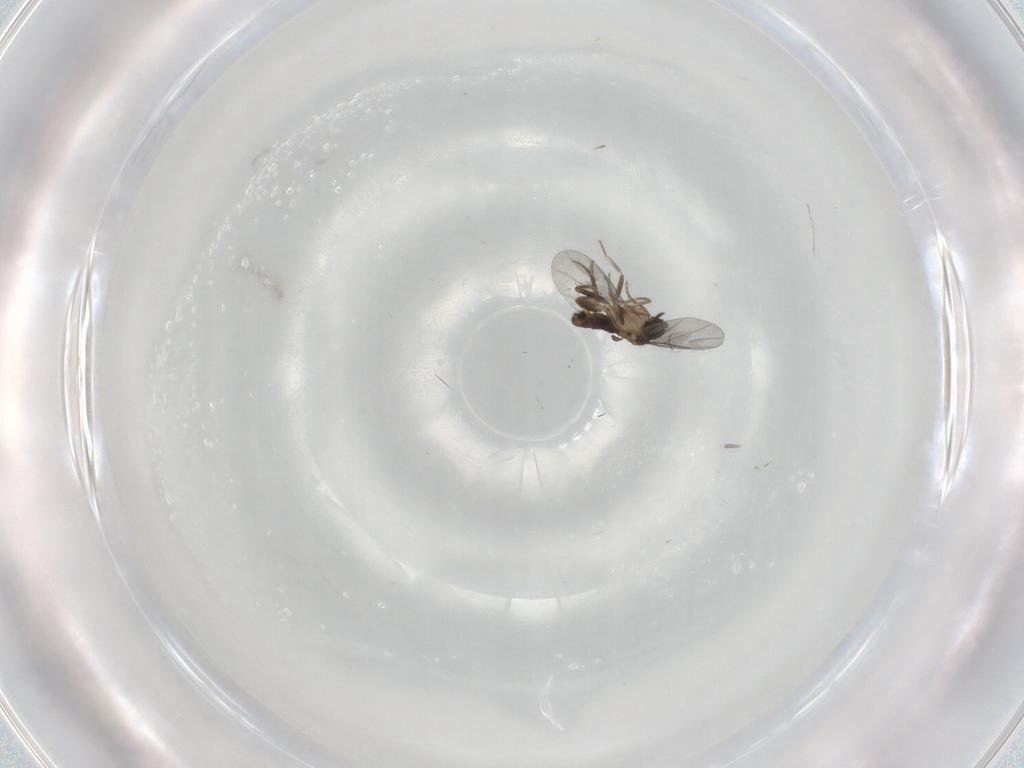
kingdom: Animalia
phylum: Arthropoda
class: Insecta
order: Diptera
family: Cecidomyiidae
